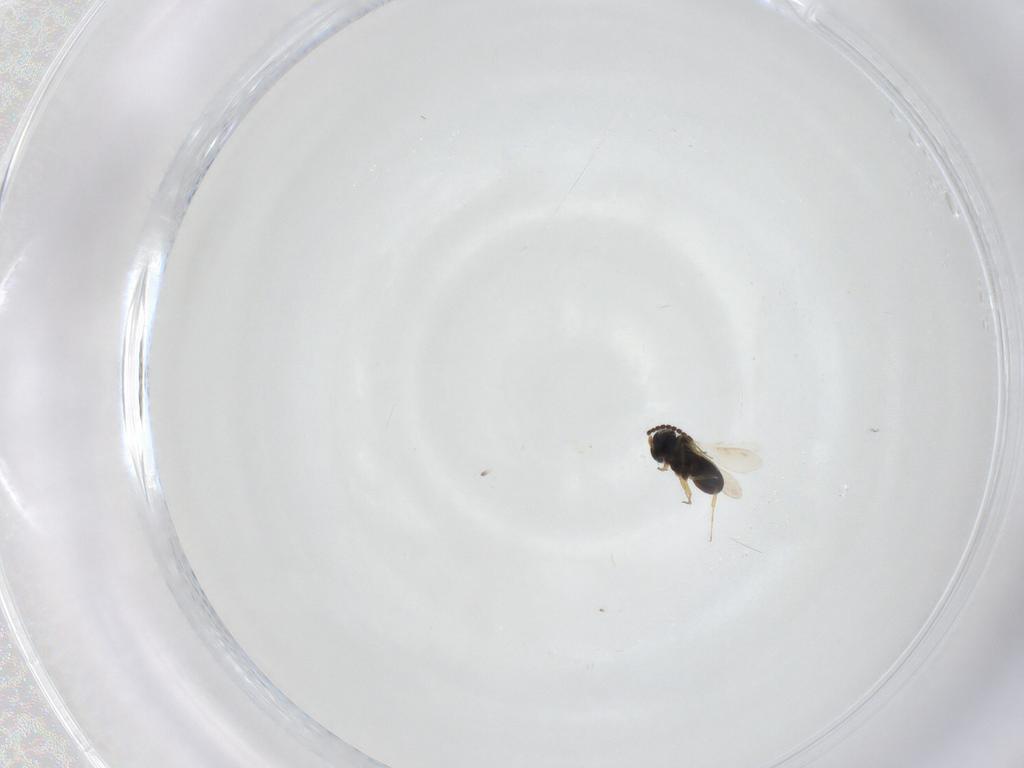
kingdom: Animalia
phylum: Arthropoda
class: Insecta
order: Hymenoptera
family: Scelionidae
